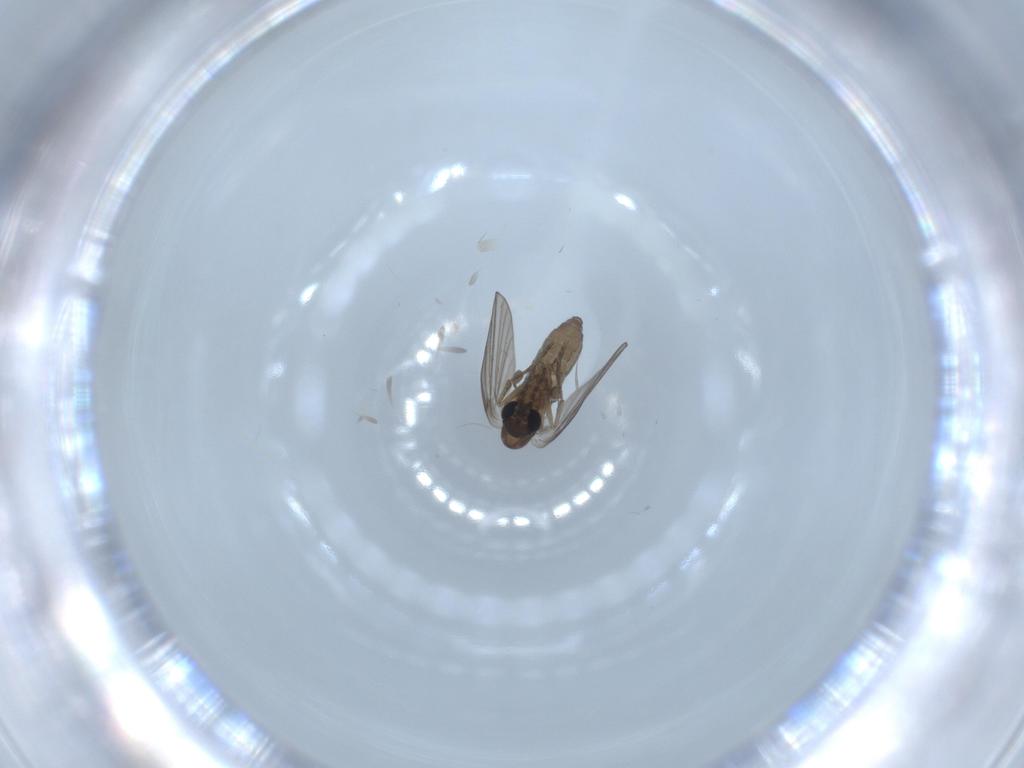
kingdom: Animalia
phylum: Arthropoda
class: Insecta
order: Diptera
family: Psychodidae
